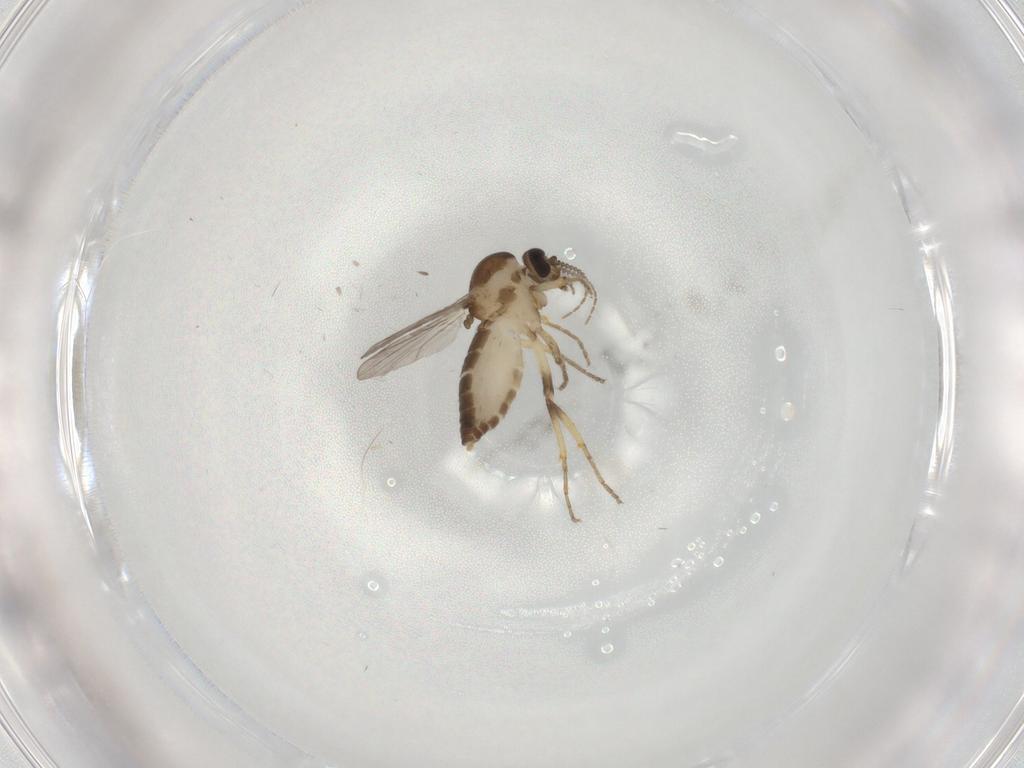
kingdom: Animalia
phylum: Arthropoda
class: Insecta
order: Diptera
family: Ceratopogonidae
